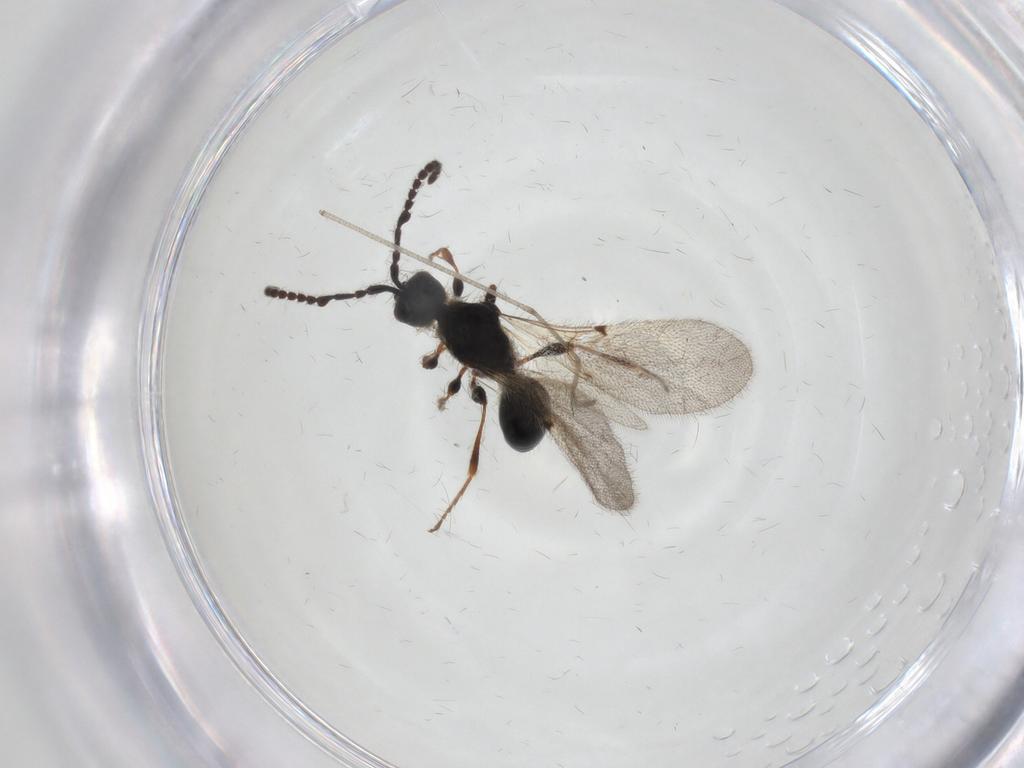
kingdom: Animalia
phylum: Arthropoda
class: Insecta
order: Hymenoptera
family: Diapriidae
